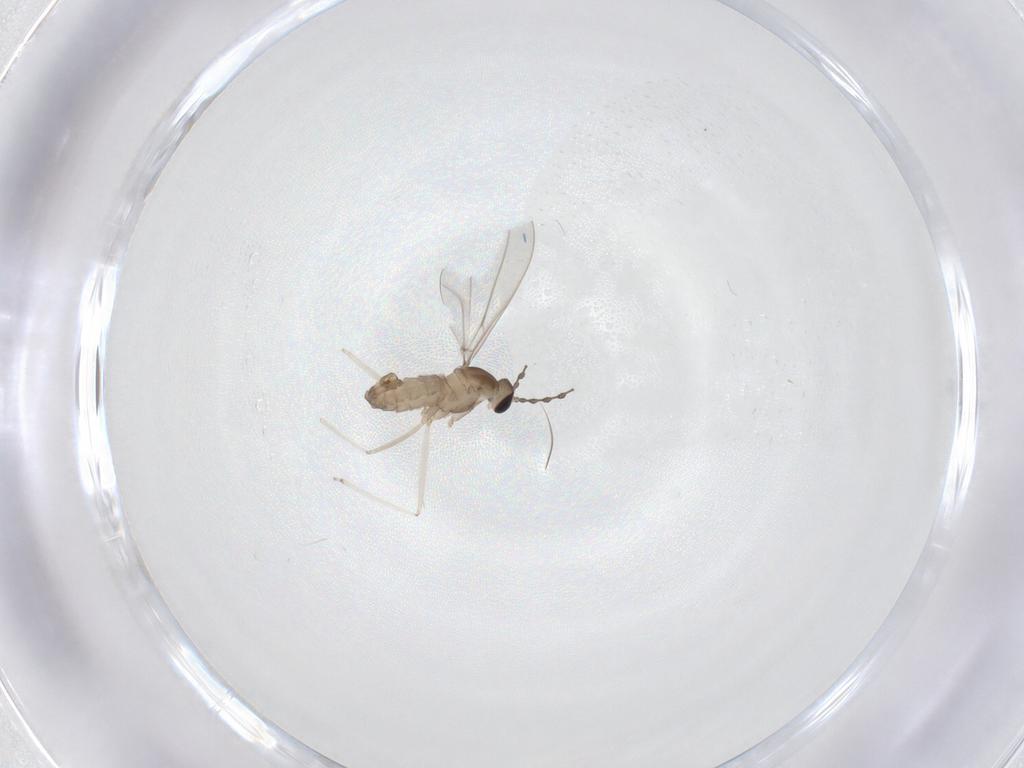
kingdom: Animalia
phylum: Arthropoda
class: Insecta
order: Diptera
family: Cecidomyiidae
